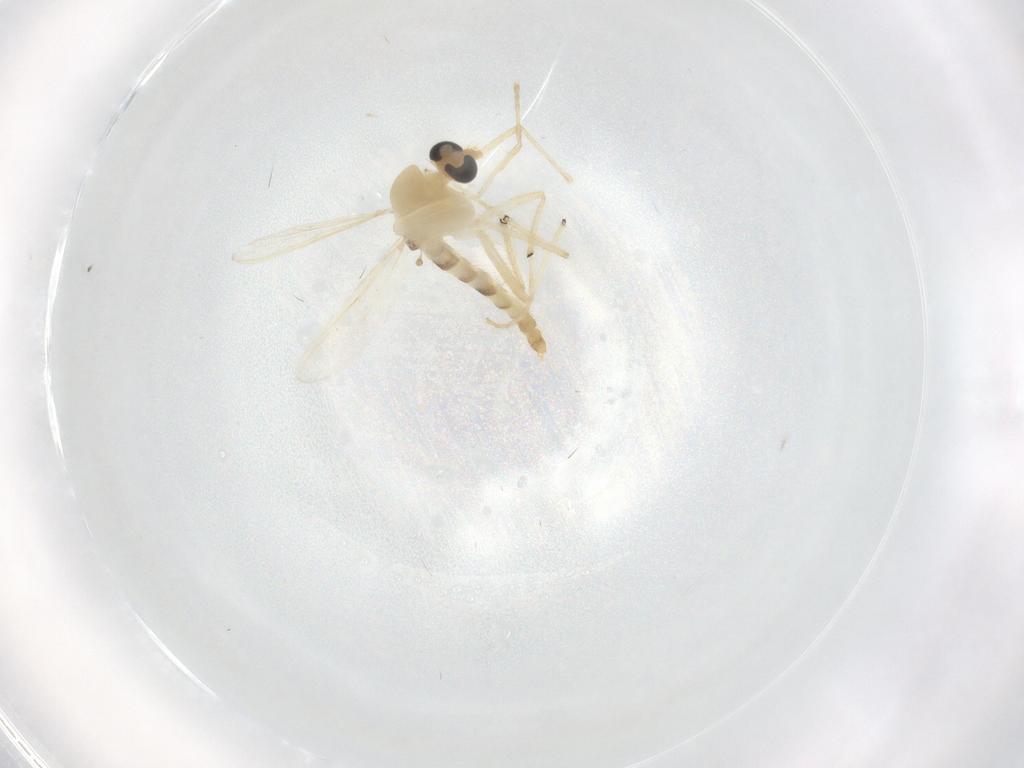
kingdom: Animalia
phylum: Arthropoda
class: Insecta
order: Diptera
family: Chironomidae
